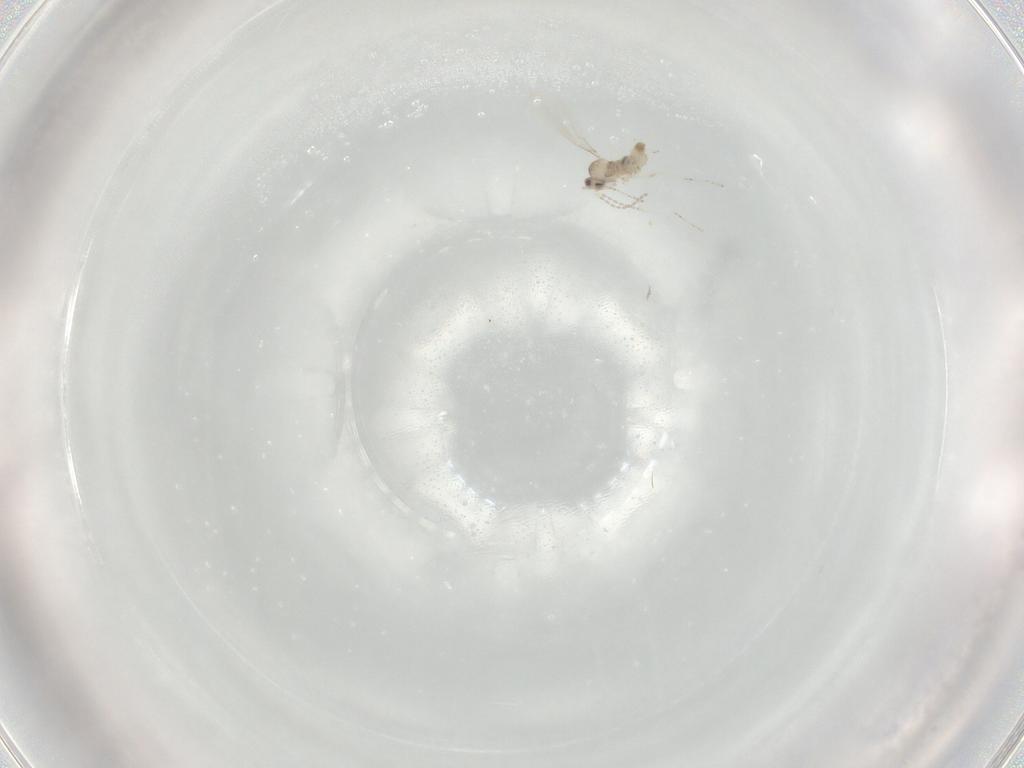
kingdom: Animalia
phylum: Arthropoda
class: Insecta
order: Diptera
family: Cecidomyiidae
